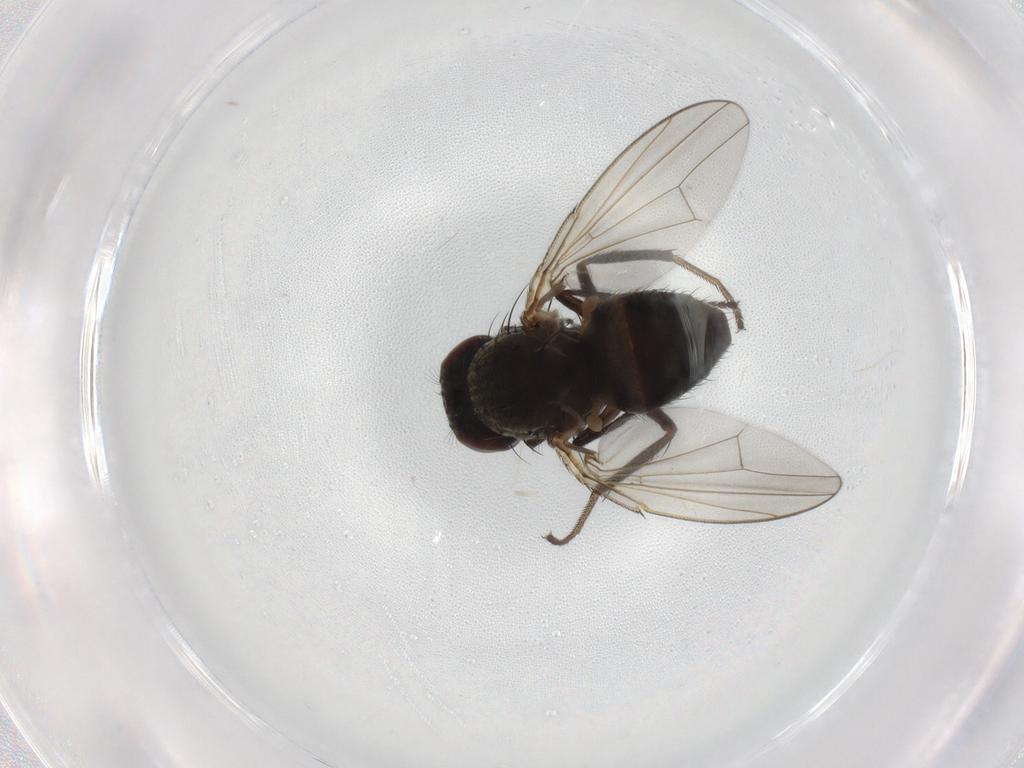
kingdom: Animalia
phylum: Arthropoda
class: Insecta
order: Diptera
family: Ephydridae
